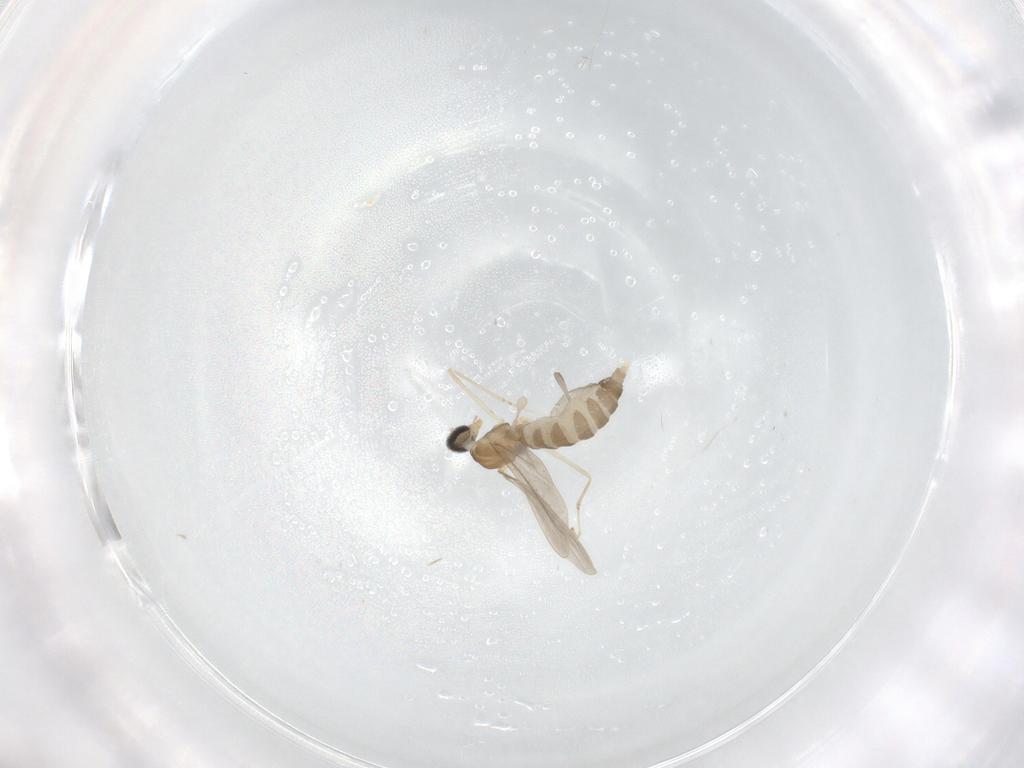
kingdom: Animalia
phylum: Arthropoda
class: Insecta
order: Diptera
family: Cecidomyiidae
